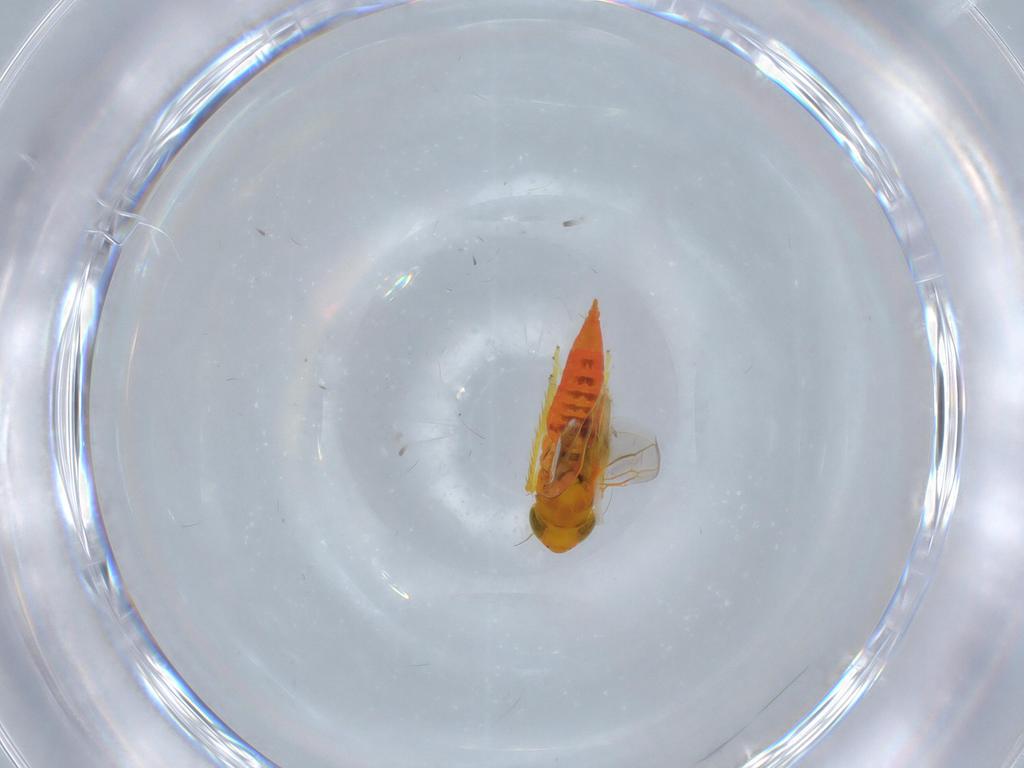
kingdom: Animalia
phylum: Arthropoda
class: Insecta
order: Hemiptera
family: Cicadellidae
